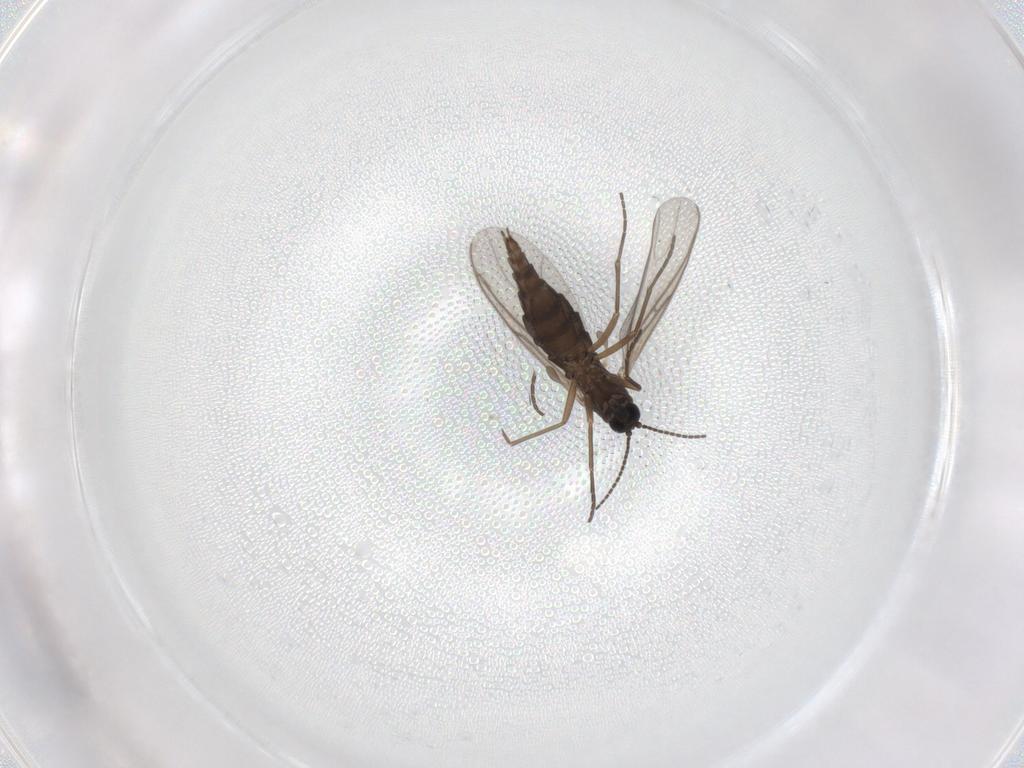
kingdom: Animalia
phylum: Arthropoda
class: Insecta
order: Diptera
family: Sciaridae
